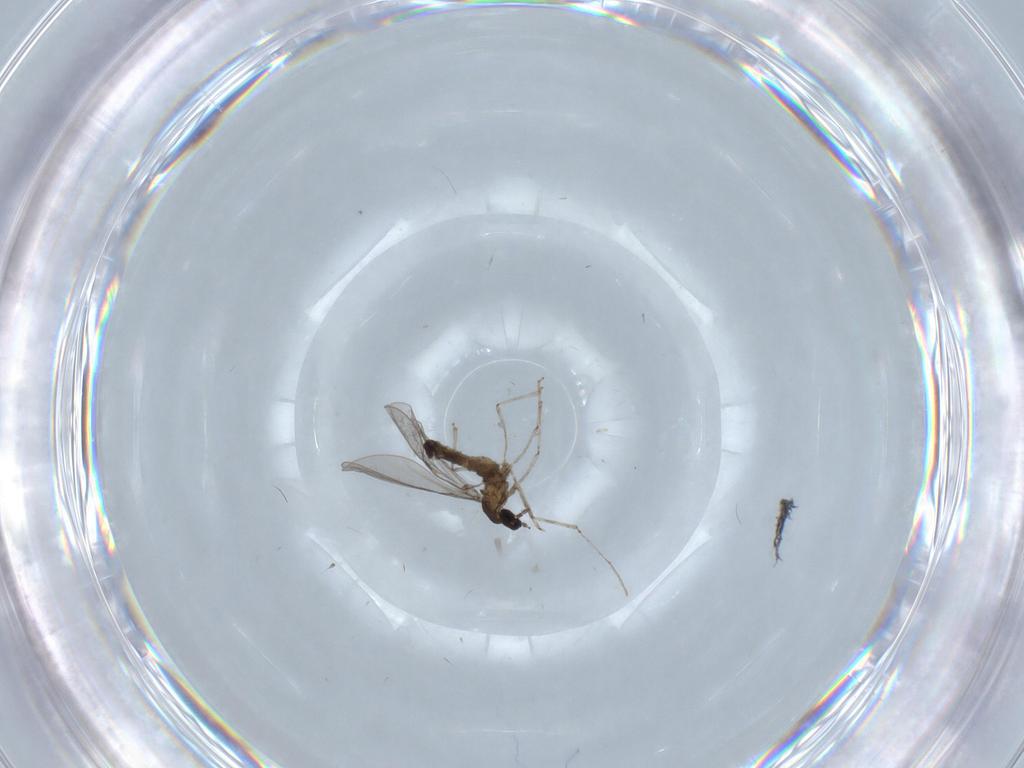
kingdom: Animalia
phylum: Arthropoda
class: Insecta
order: Diptera
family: Cecidomyiidae
